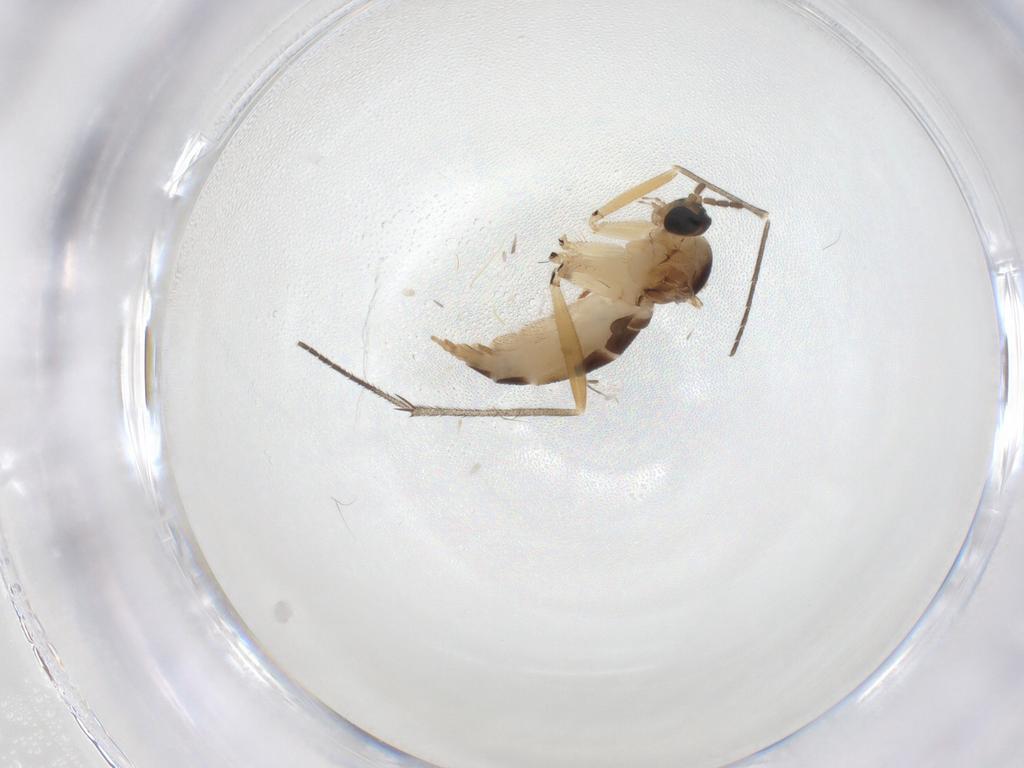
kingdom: Animalia
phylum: Arthropoda
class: Insecta
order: Diptera
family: Sciaridae
